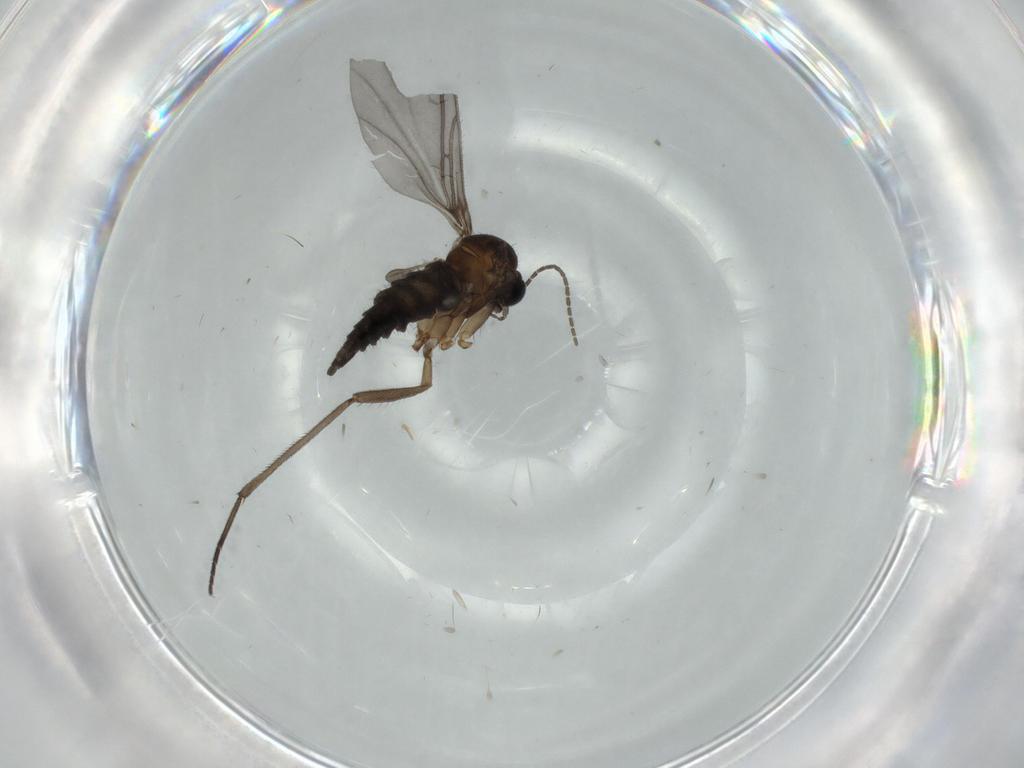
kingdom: Animalia
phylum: Arthropoda
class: Insecta
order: Diptera
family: Sciaridae
